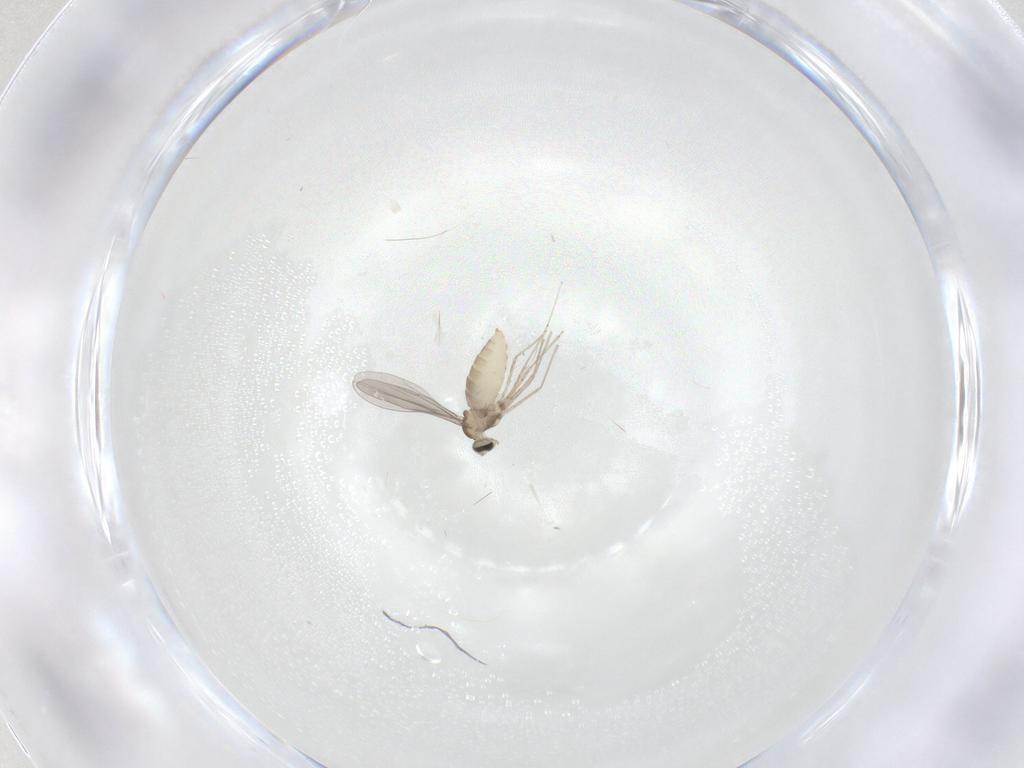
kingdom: Animalia
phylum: Arthropoda
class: Insecta
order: Diptera
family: Cecidomyiidae
